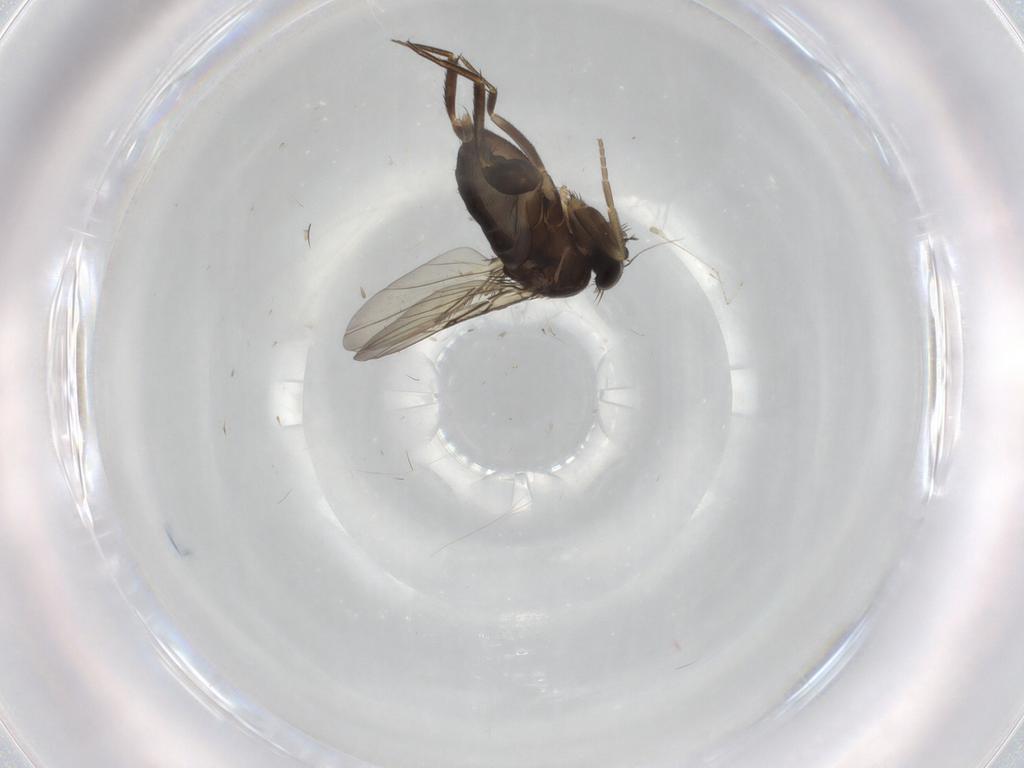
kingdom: Animalia
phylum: Arthropoda
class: Insecta
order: Diptera
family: Phoridae
